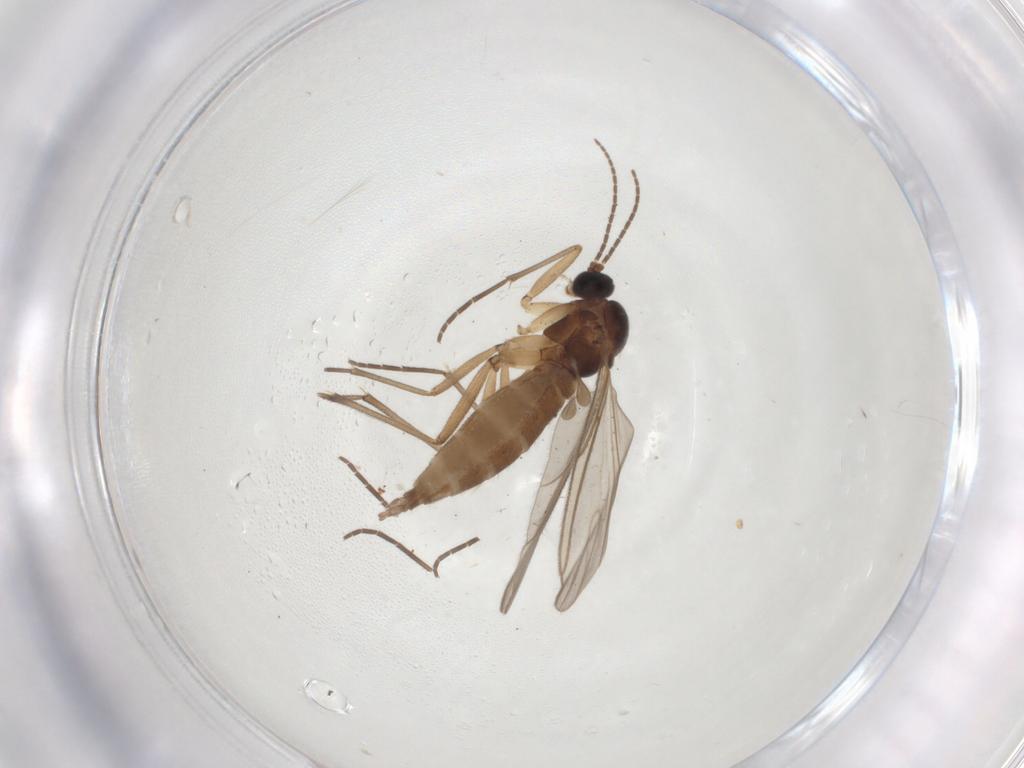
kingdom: Animalia
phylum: Arthropoda
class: Insecta
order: Diptera
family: Sciaridae
